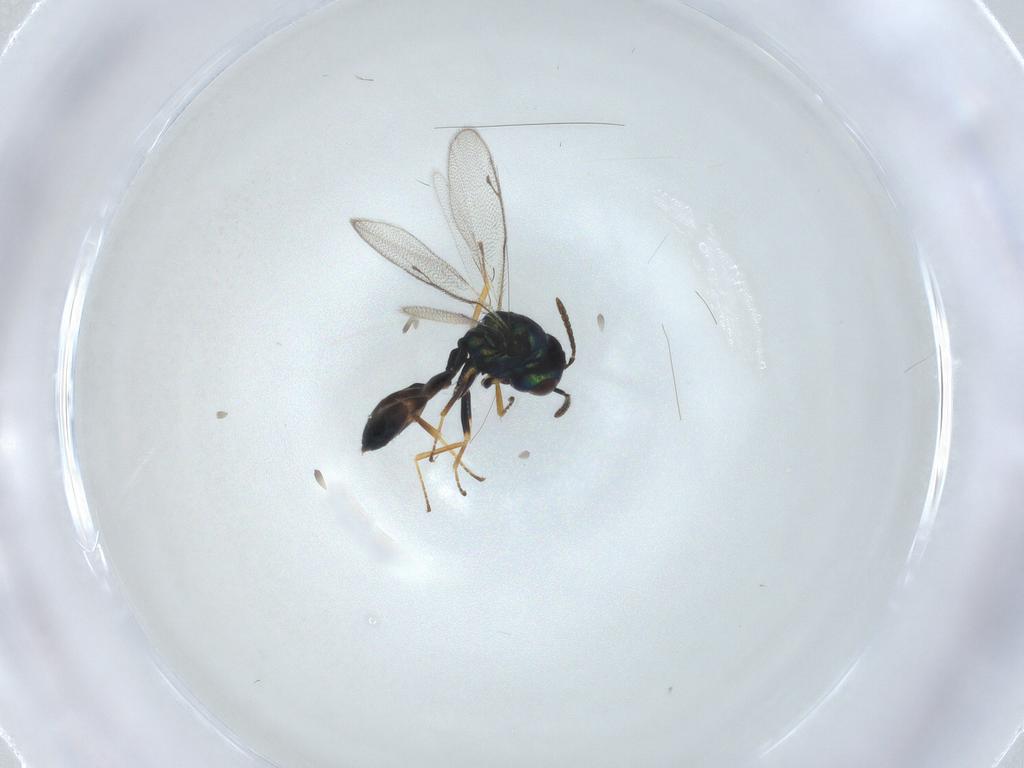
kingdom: Animalia
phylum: Arthropoda
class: Insecta
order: Hymenoptera
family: Pteromalidae
